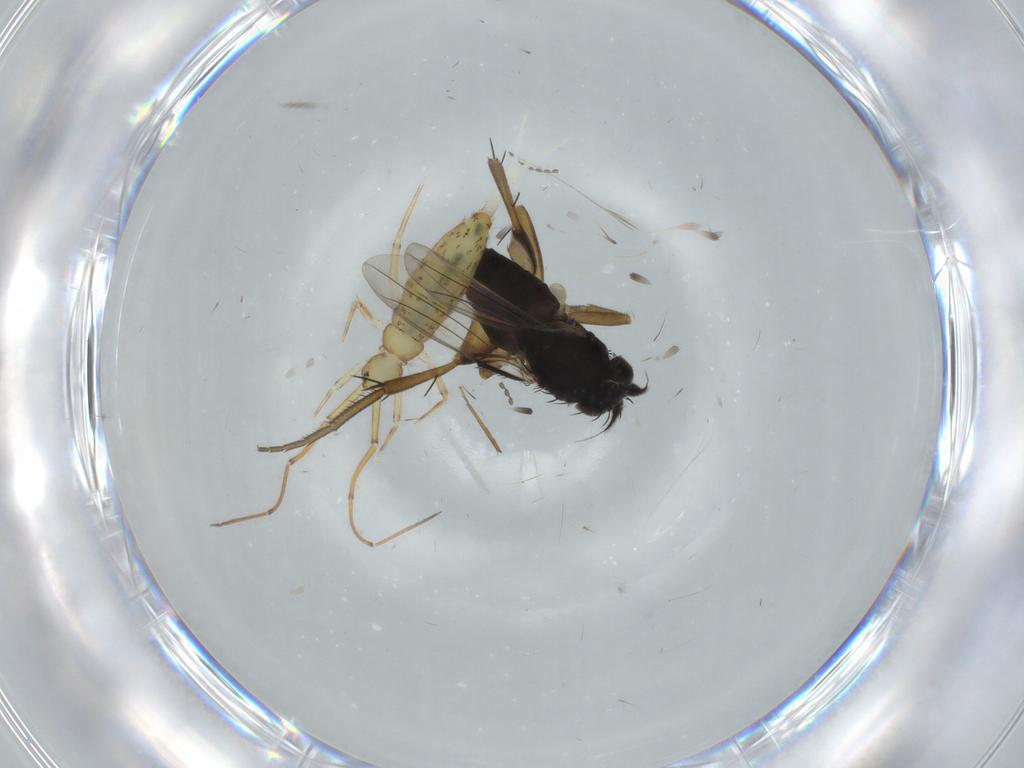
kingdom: Animalia
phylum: Arthropoda
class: Collembola
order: Entomobryomorpha
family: Paronellidae
